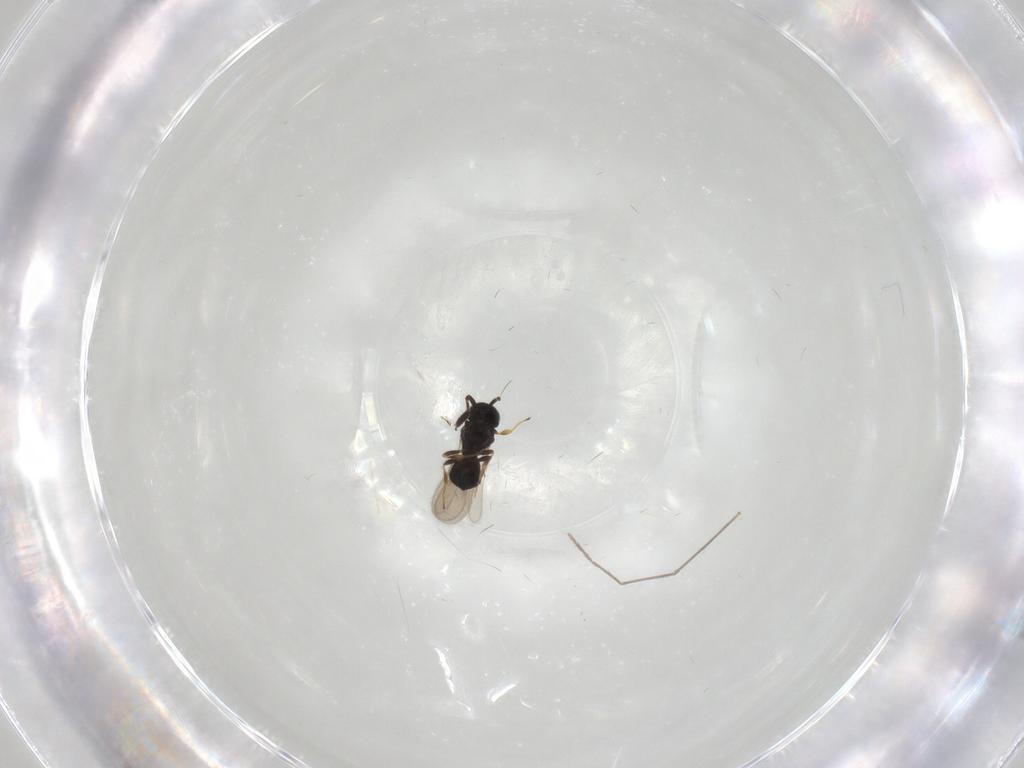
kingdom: Animalia
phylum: Arthropoda
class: Insecta
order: Hymenoptera
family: Scelionidae
